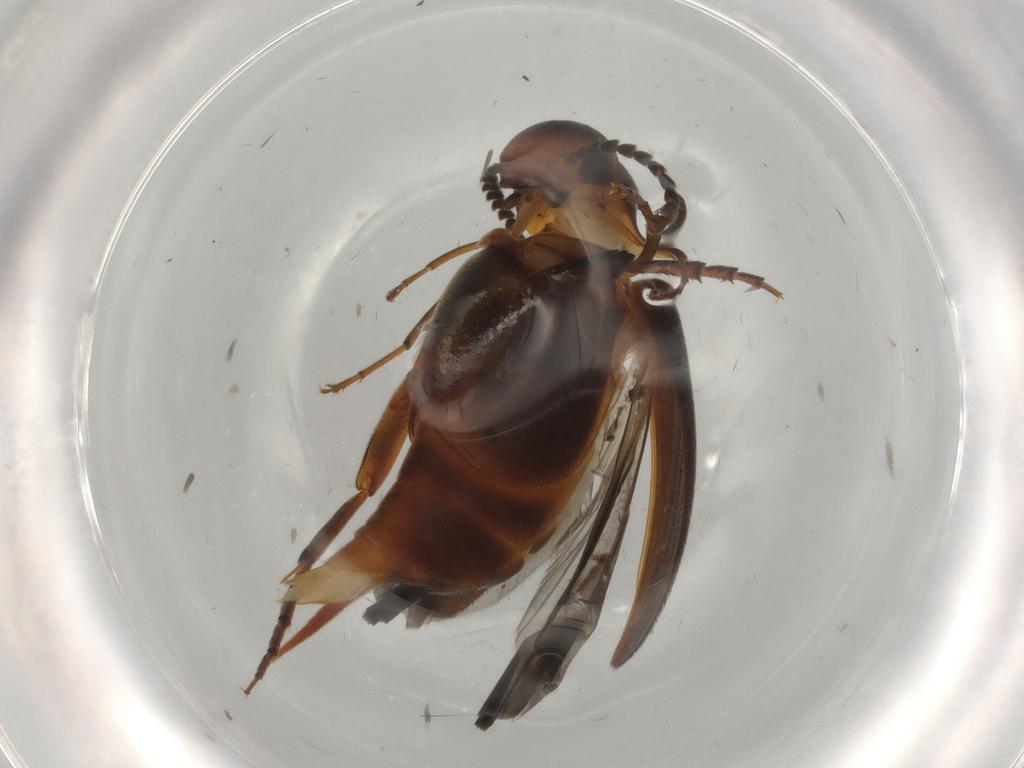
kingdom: Animalia
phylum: Arthropoda
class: Insecta
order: Coleoptera
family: Staphylinidae
